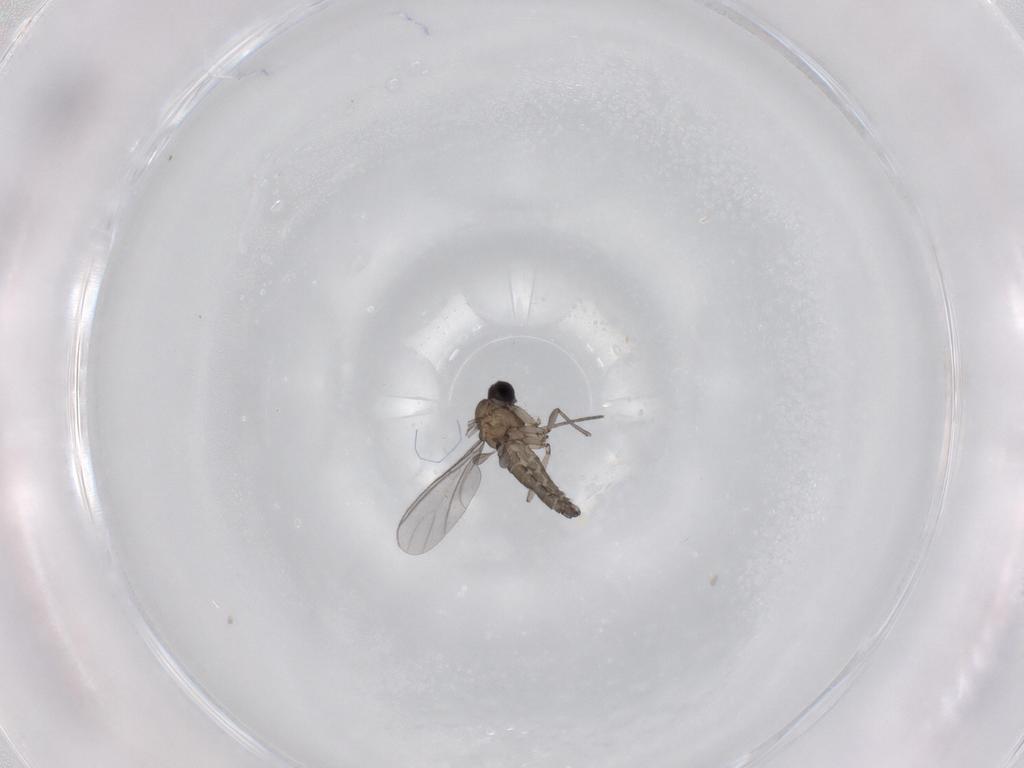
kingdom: Animalia
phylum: Arthropoda
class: Insecta
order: Diptera
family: Sciaridae
